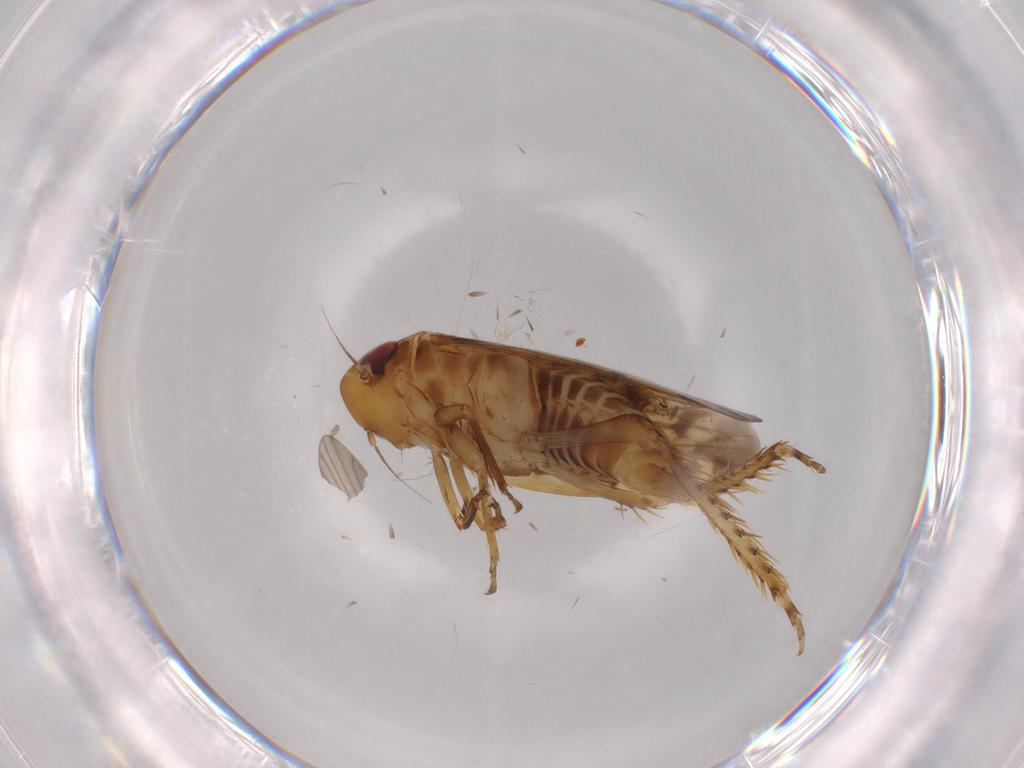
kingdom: Animalia
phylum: Arthropoda
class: Insecta
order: Hemiptera
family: Cicadellidae
